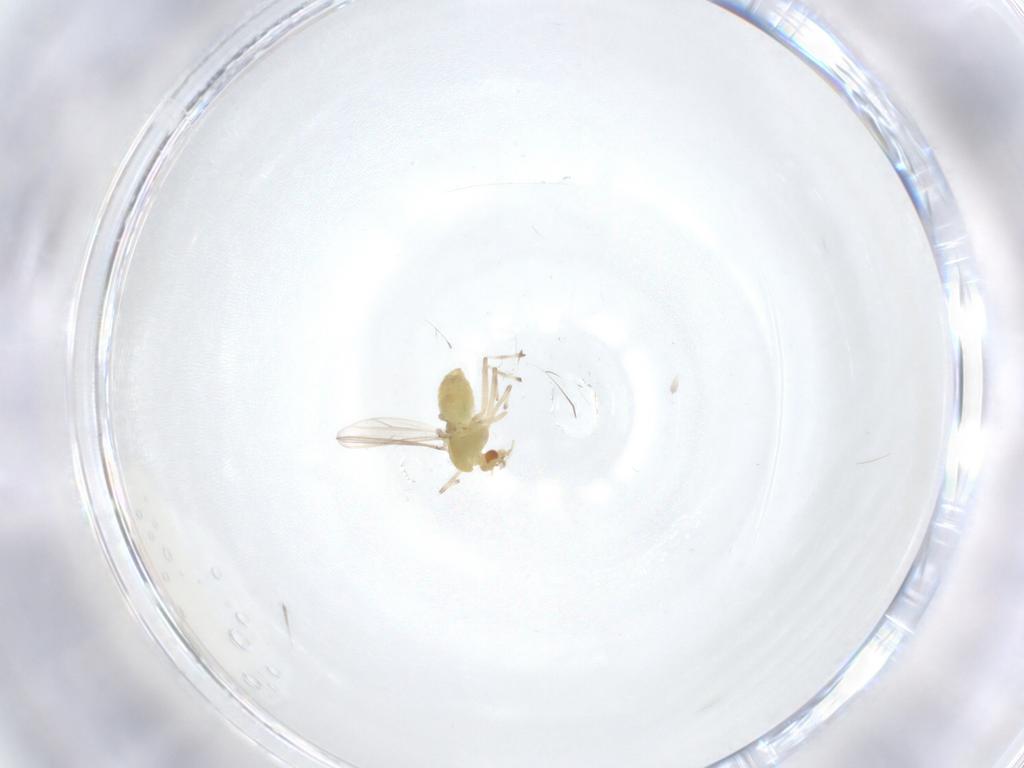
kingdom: Animalia
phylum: Arthropoda
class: Insecta
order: Diptera
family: Chironomidae
